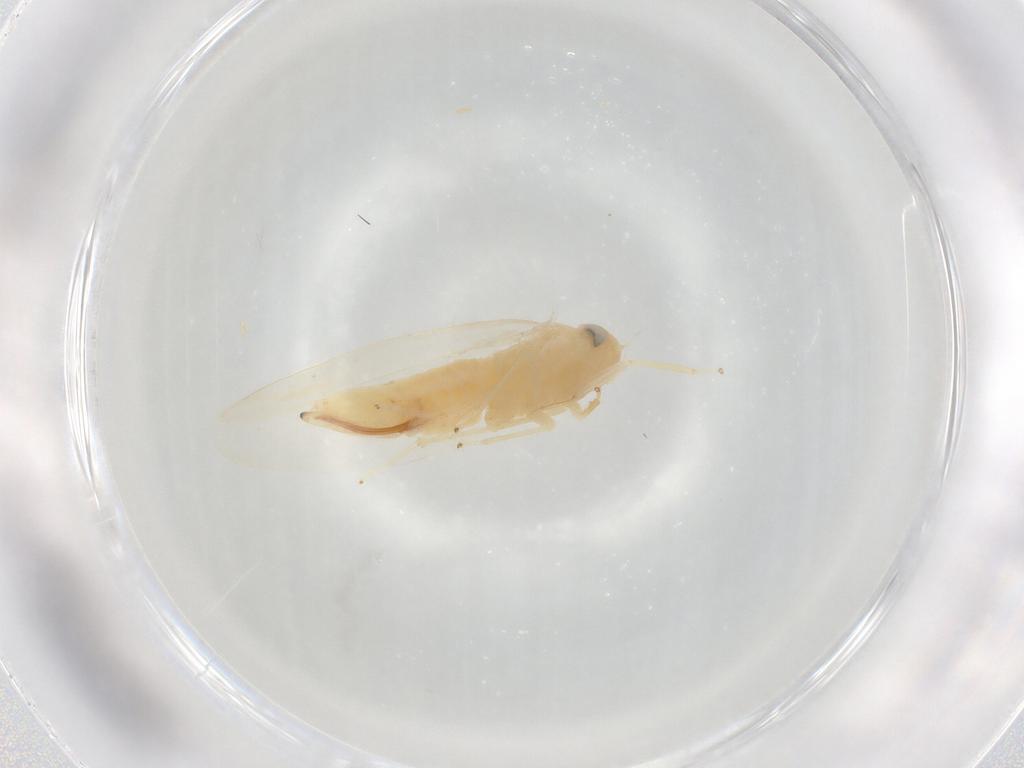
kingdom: Animalia
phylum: Arthropoda
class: Insecta
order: Hemiptera
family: Cicadellidae
